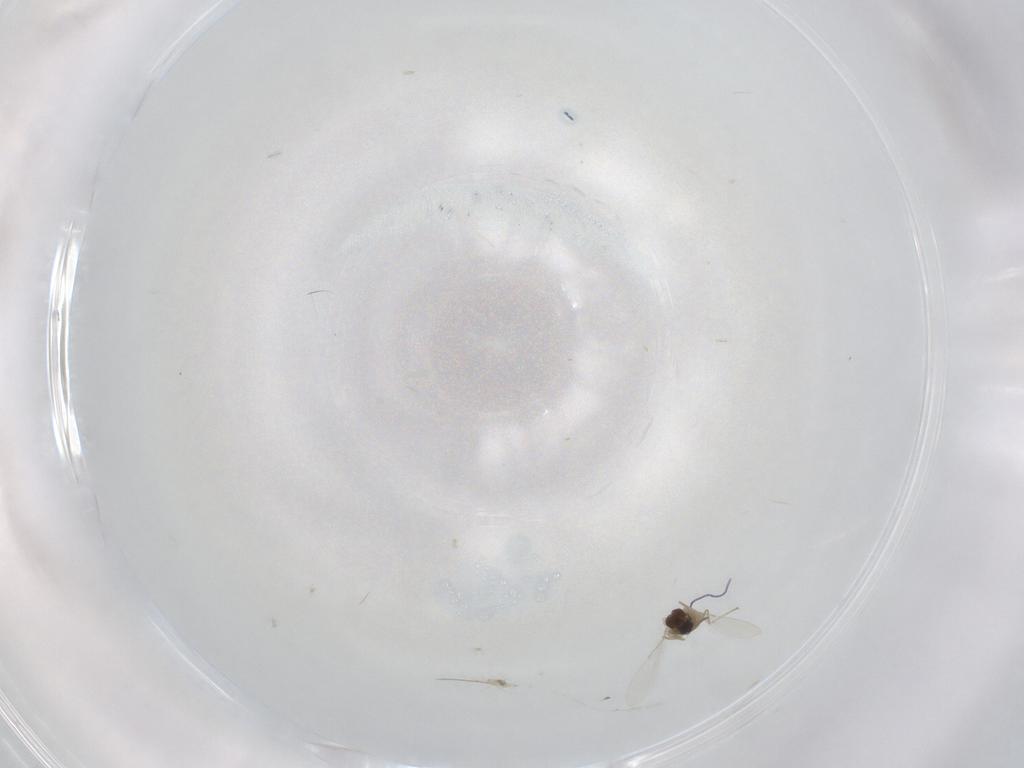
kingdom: Animalia
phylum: Arthropoda
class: Insecta
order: Diptera
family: Cecidomyiidae
